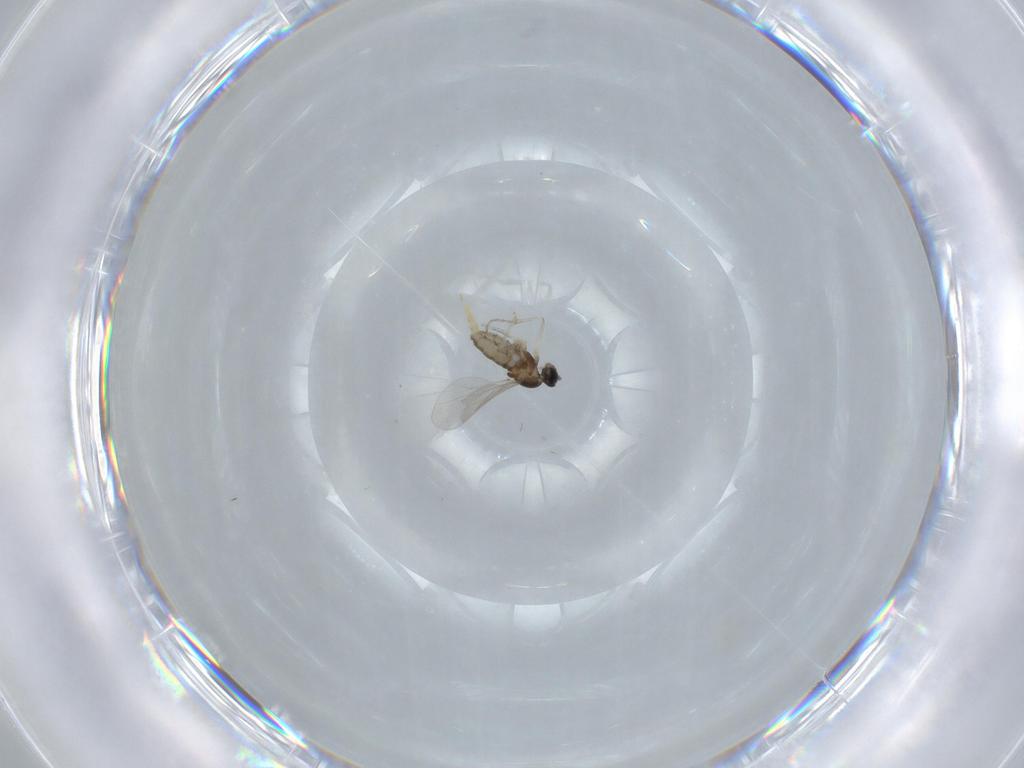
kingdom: Animalia
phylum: Arthropoda
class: Insecta
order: Diptera
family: Cecidomyiidae
